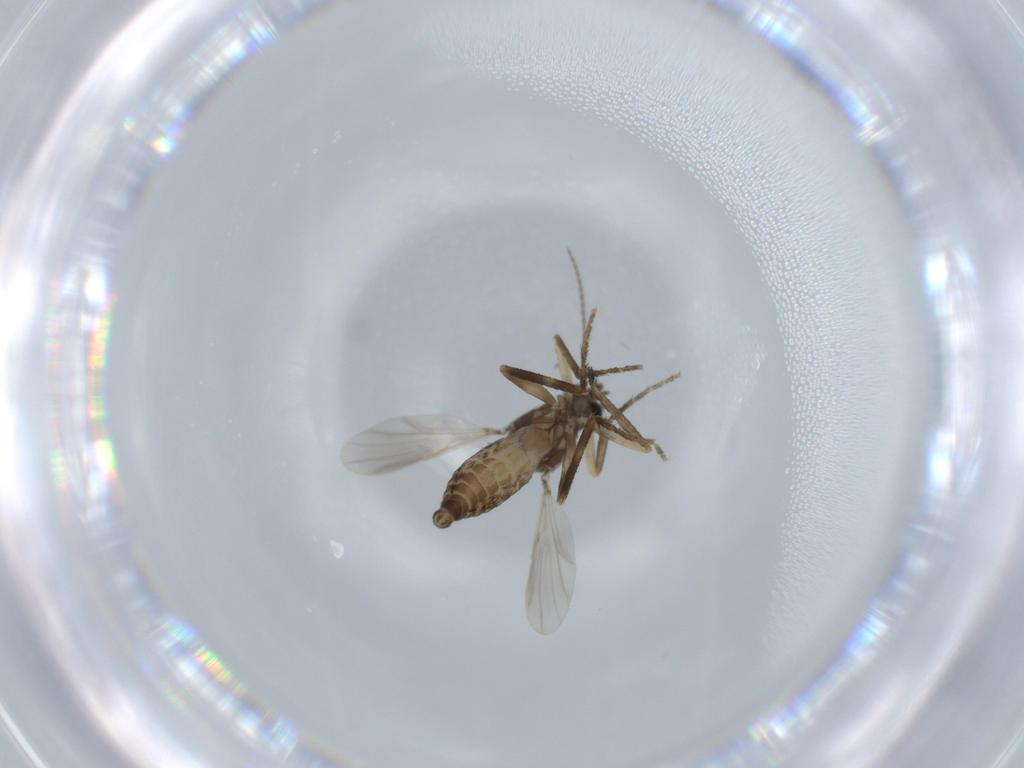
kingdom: Animalia
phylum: Arthropoda
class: Insecta
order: Diptera
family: Ceratopogonidae
